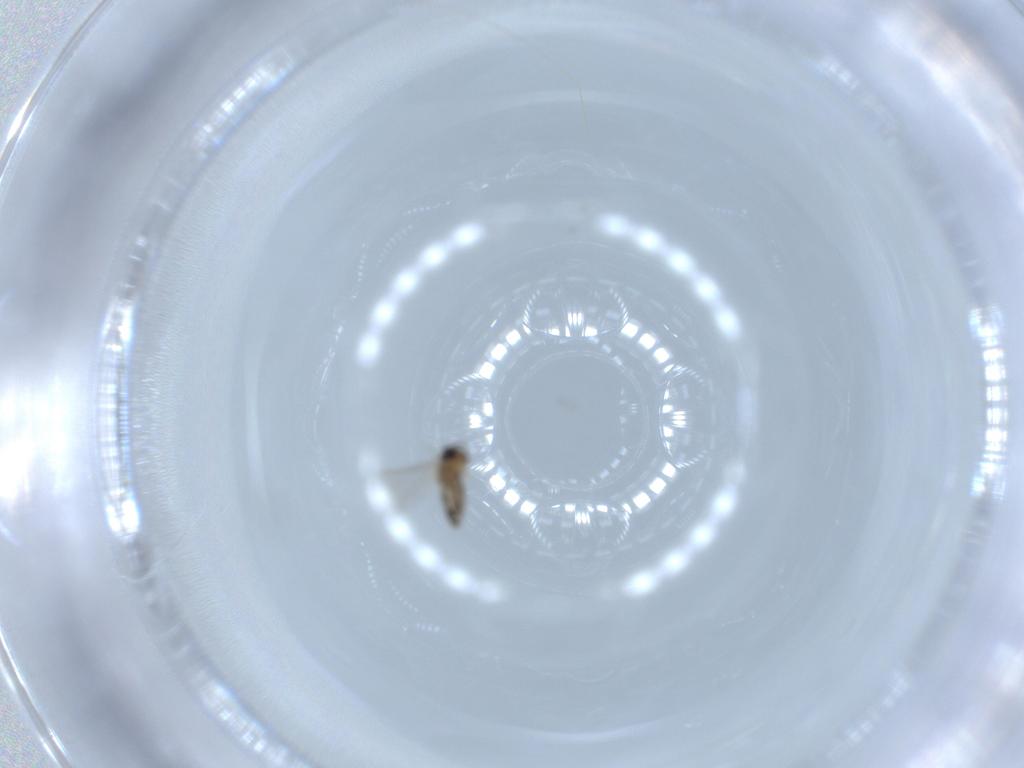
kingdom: Animalia
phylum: Arthropoda
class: Insecta
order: Diptera
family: Cecidomyiidae
